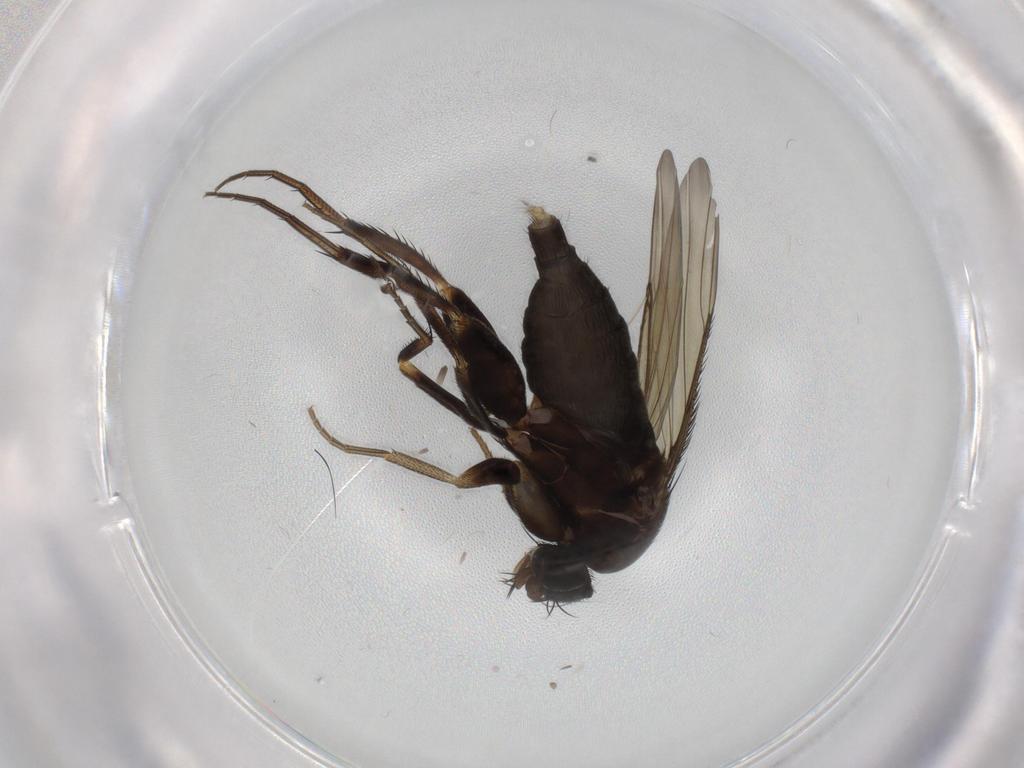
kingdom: Animalia
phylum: Arthropoda
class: Insecta
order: Diptera
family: Phoridae
